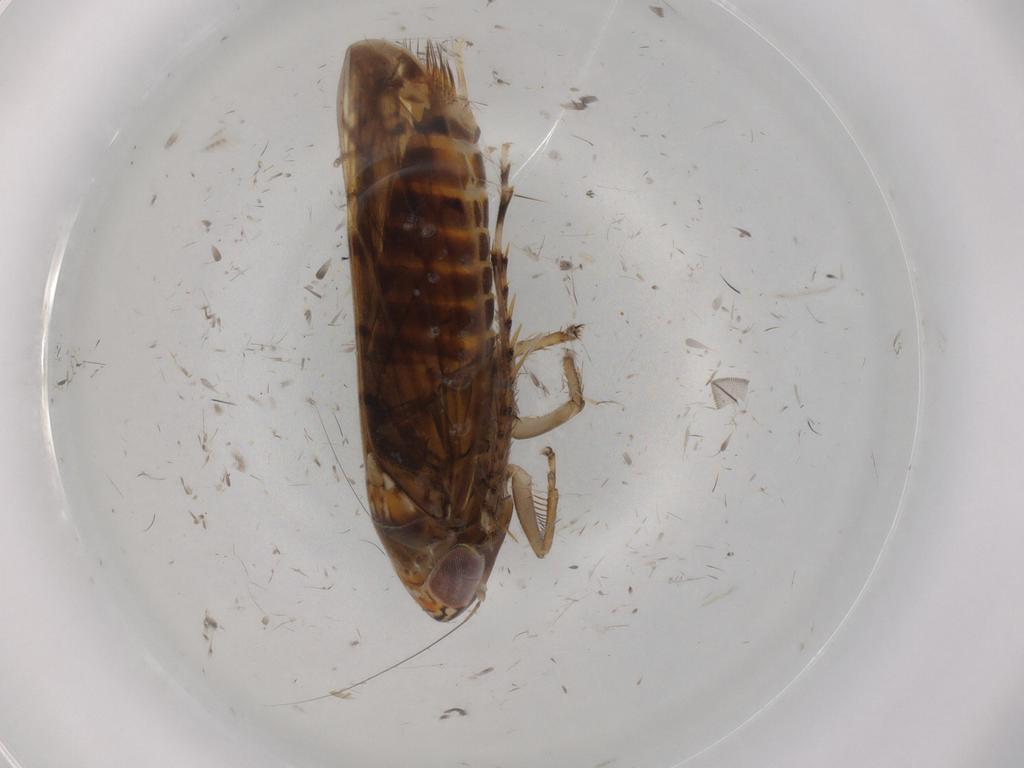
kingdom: Animalia
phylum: Arthropoda
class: Insecta
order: Hemiptera
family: Cicadellidae
